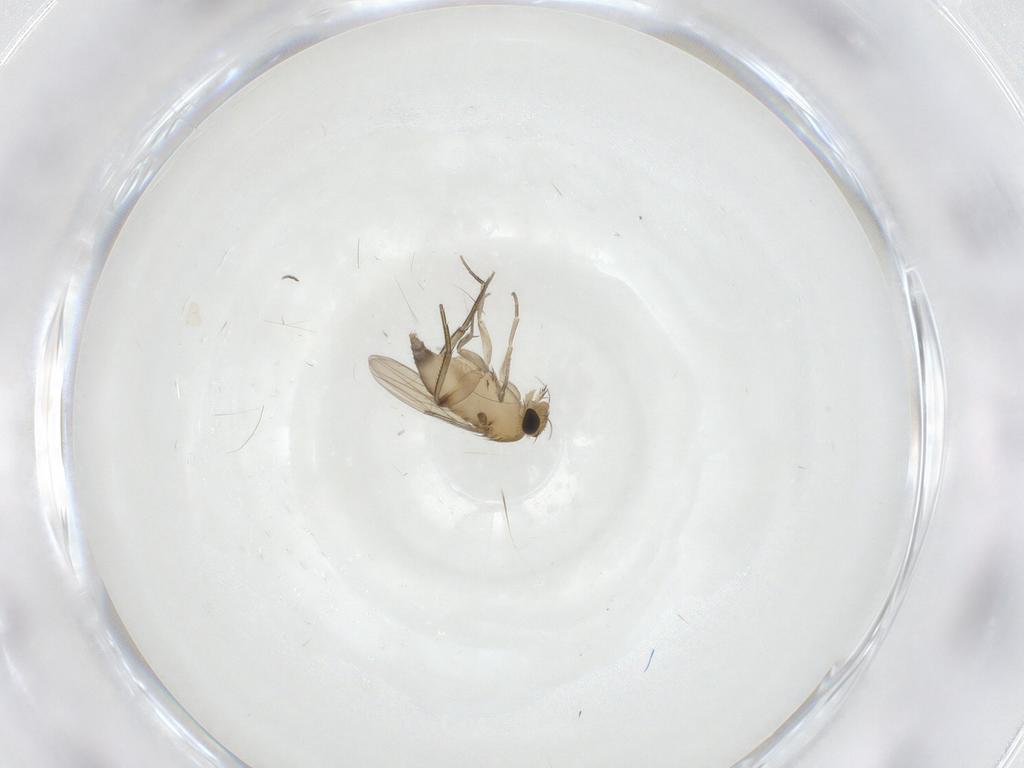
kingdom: Animalia
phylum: Arthropoda
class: Insecta
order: Diptera
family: Phoridae
